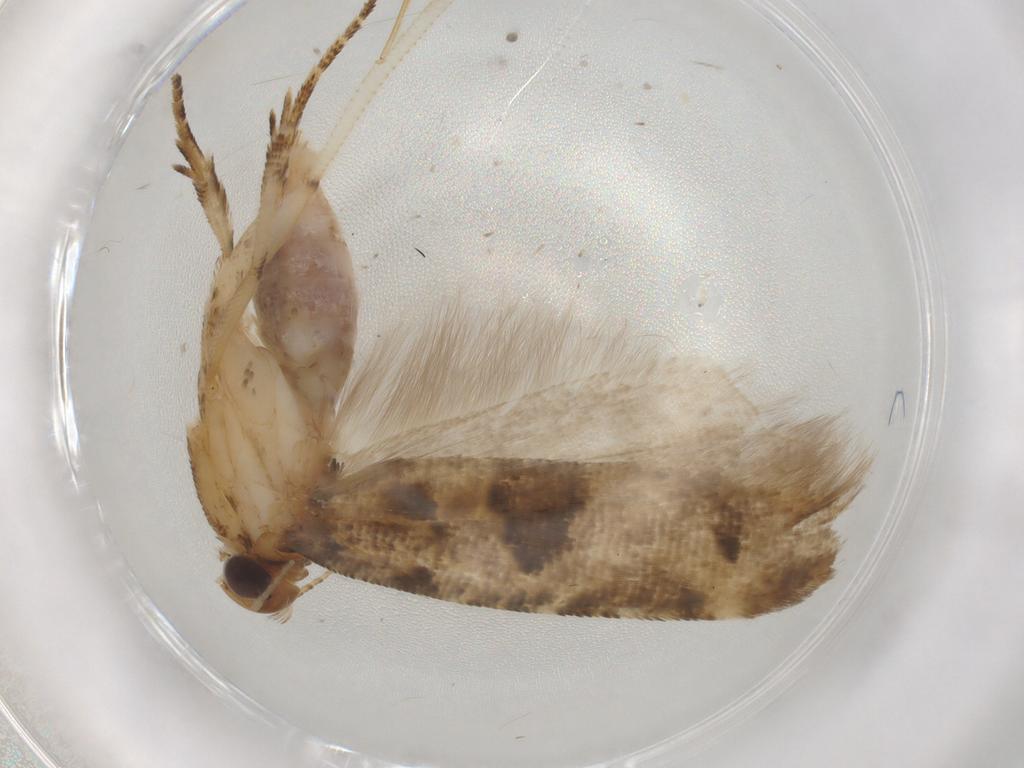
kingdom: Animalia
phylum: Arthropoda
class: Insecta
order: Lepidoptera
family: Gelechiidae
